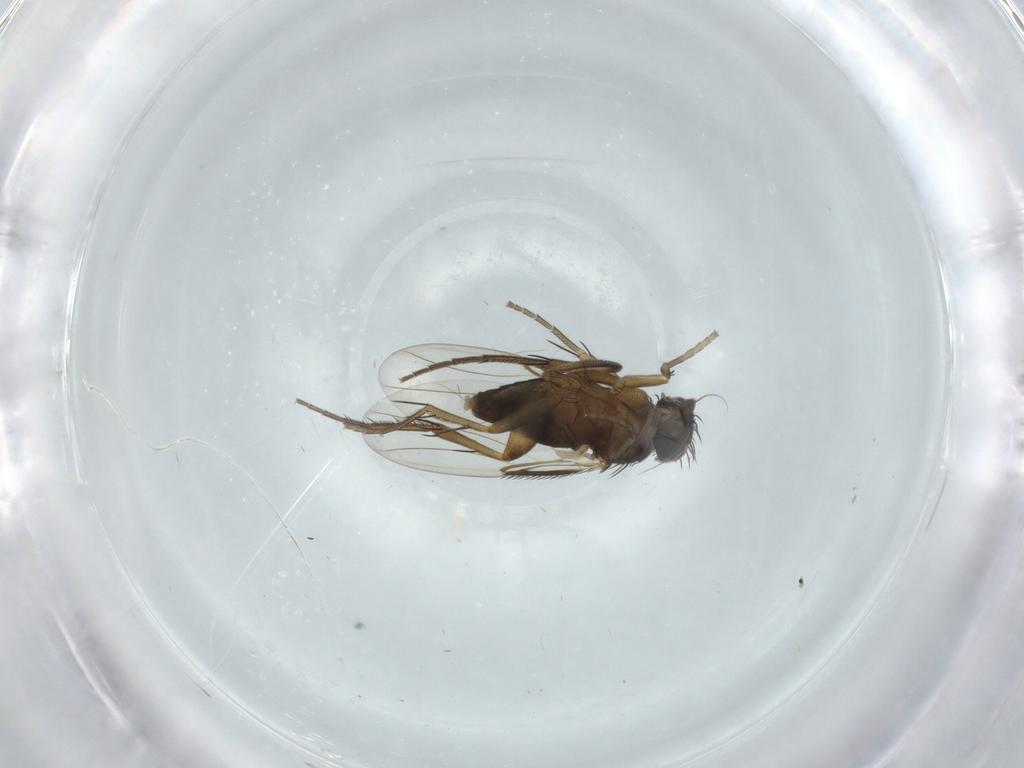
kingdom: Animalia
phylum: Arthropoda
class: Insecta
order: Diptera
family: Phoridae
